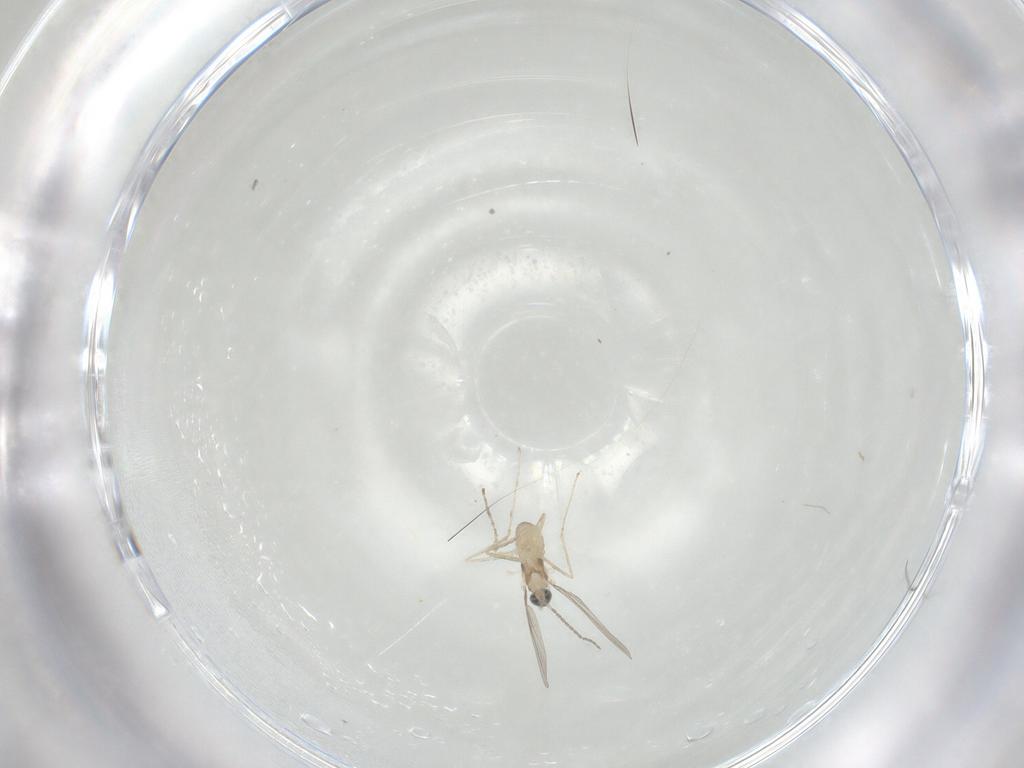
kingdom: Animalia
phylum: Arthropoda
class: Insecta
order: Diptera
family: Cecidomyiidae
